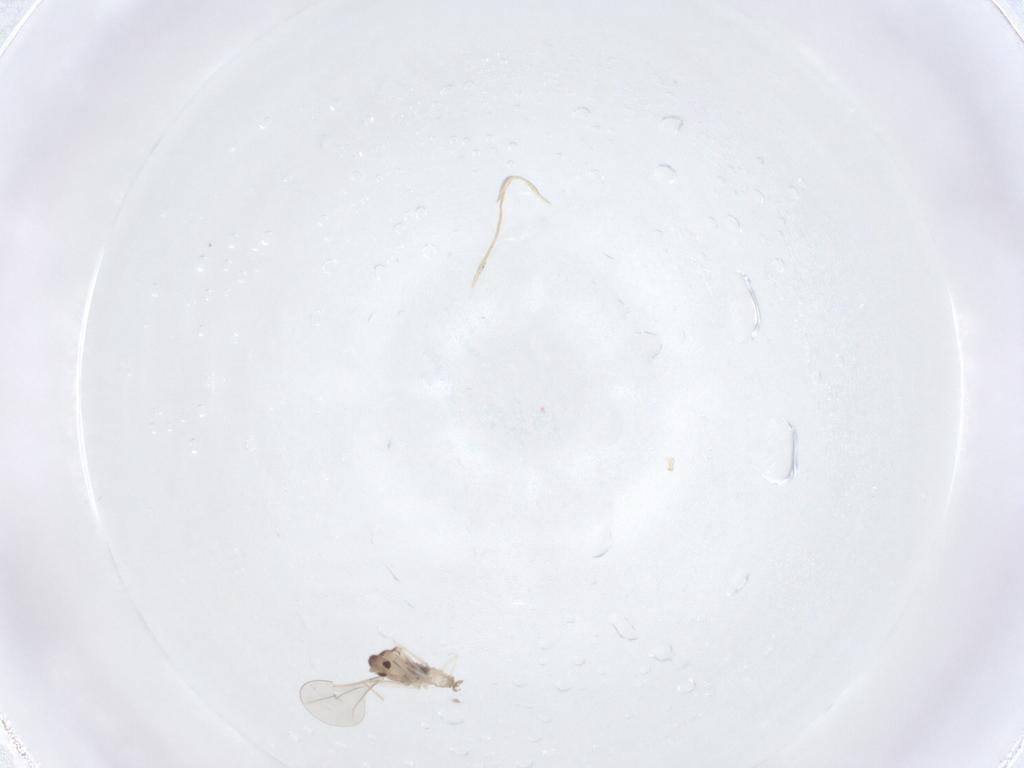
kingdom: Animalia
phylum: Arthropoda
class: Insecta
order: Diptera
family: Cecidomyiidae
